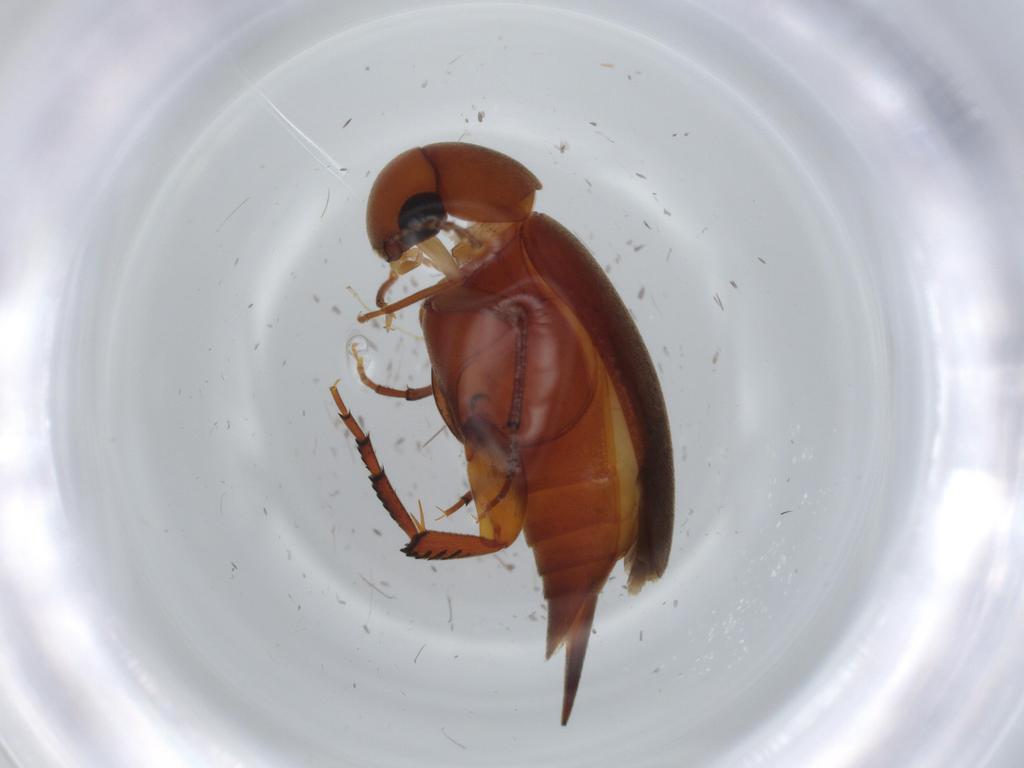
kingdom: Animalia
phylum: Arthropoda
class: Insecta
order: Coleoptera
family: Mordellidae
